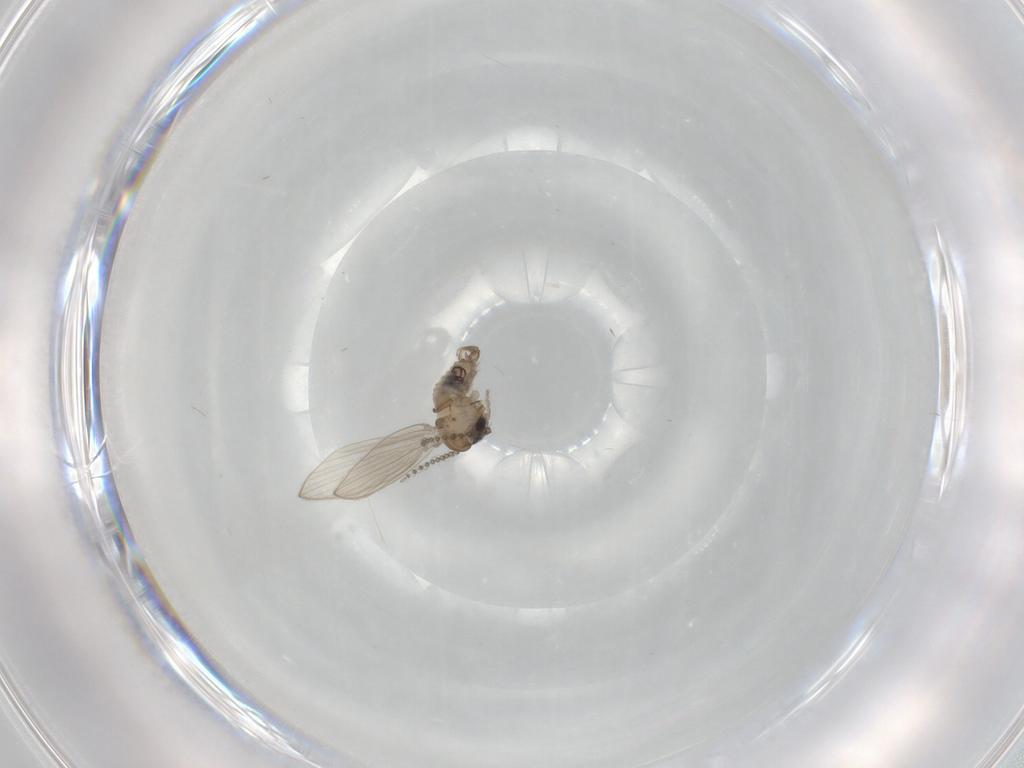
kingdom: Animalia
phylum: Arthropoda
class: Insecta
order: Diptera
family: Psychodidae
